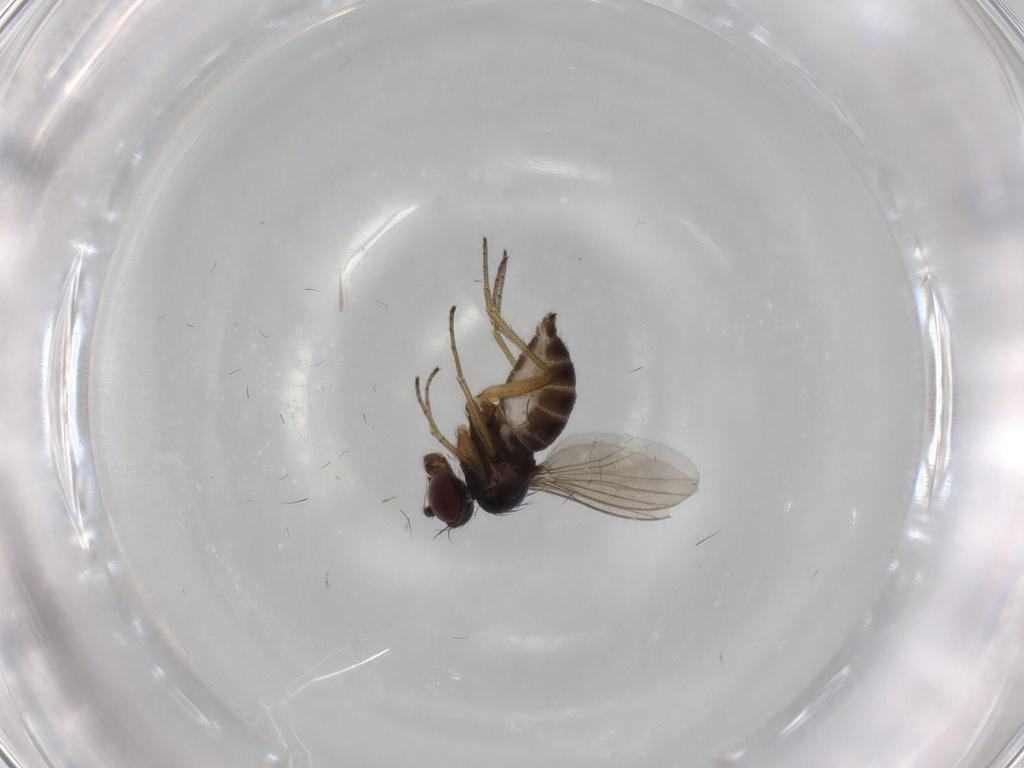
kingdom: Animalia
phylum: Arthropoda
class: Insecta
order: Diptera
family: Dolichopodidae
